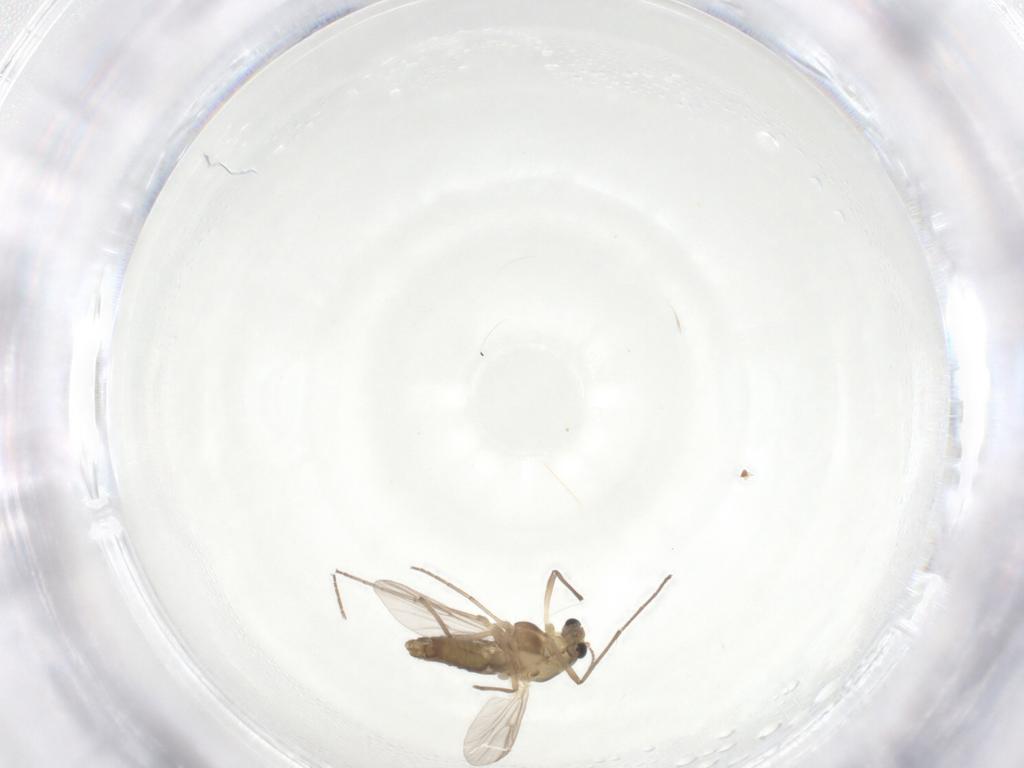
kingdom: Animalia
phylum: Arthropoda
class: Insecta
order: Diptera
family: Chironomidae
